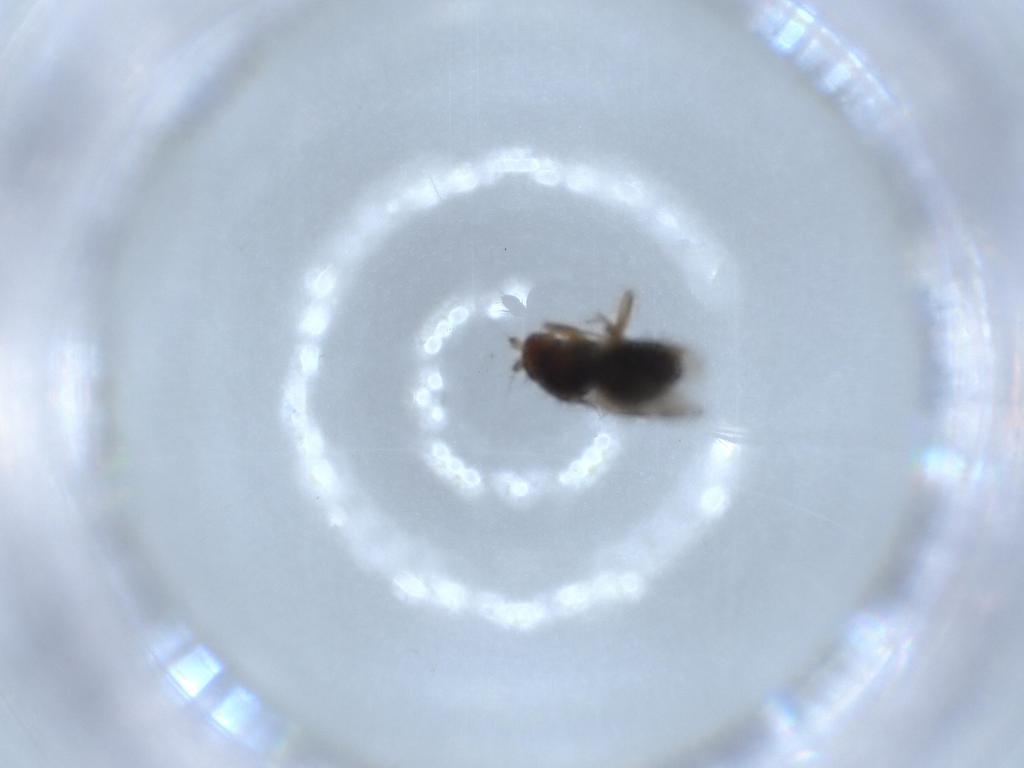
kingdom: Animalia
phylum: Arthropoda
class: Insecta
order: Diptera
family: Sphaeroceridae
